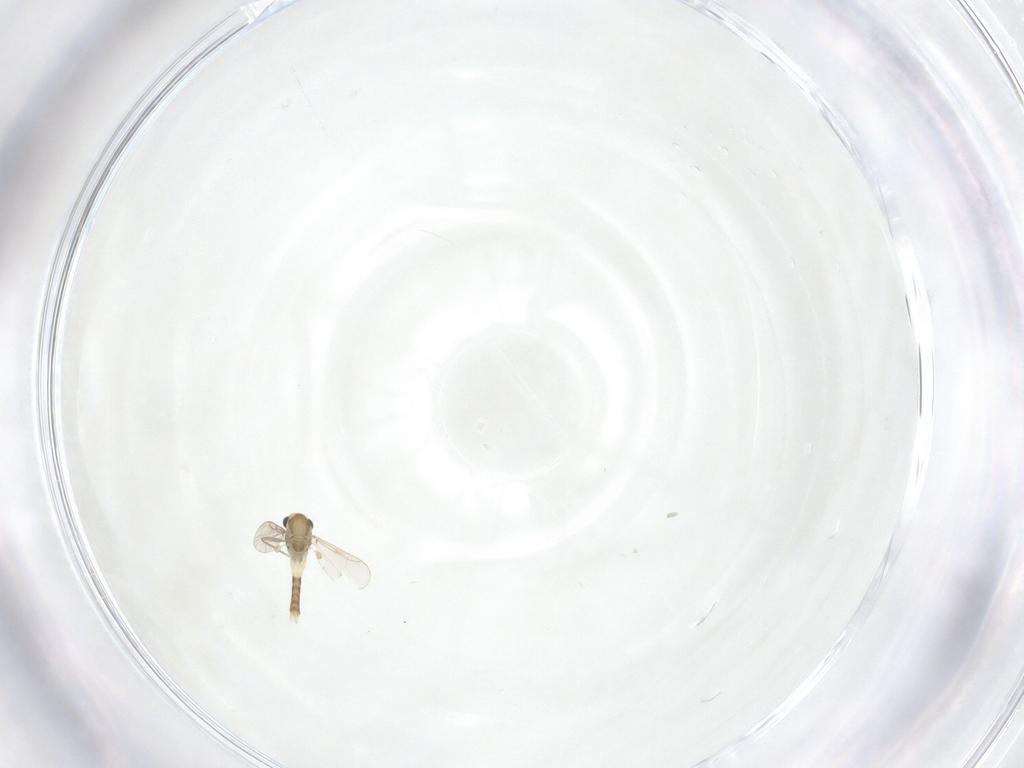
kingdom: Animalia
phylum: Arthropoda
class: Insecta
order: Diptera
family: Chironomidae
